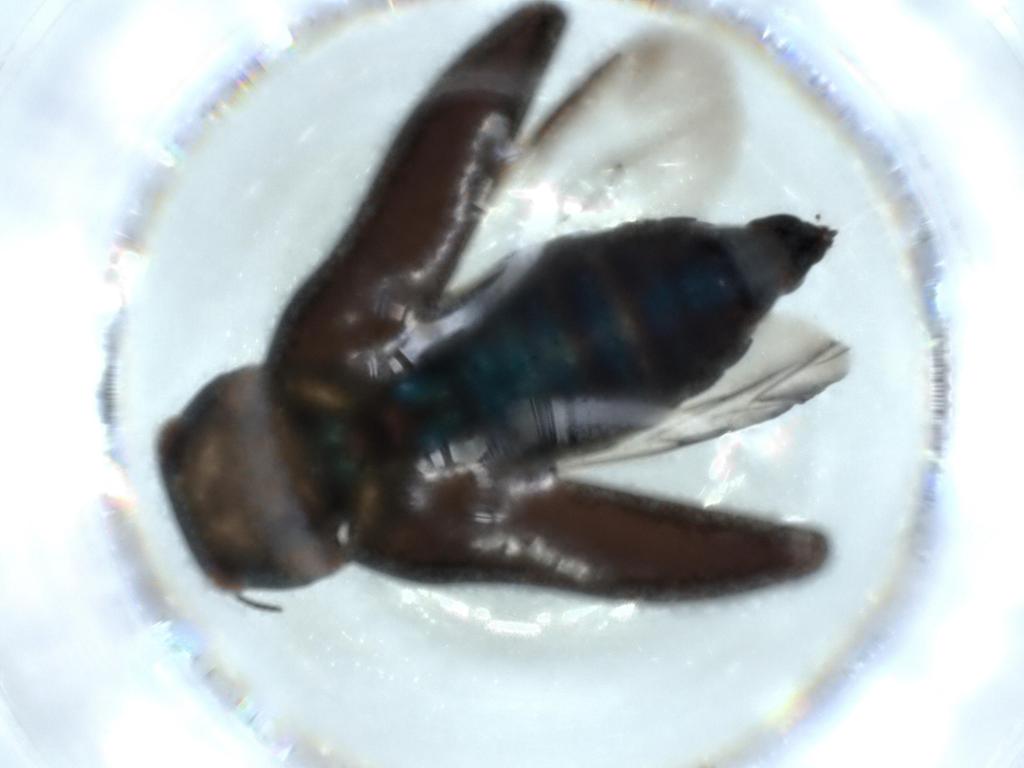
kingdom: Animalia
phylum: Arthropoda
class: Insecta
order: Coleoptera
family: Buprestidae
